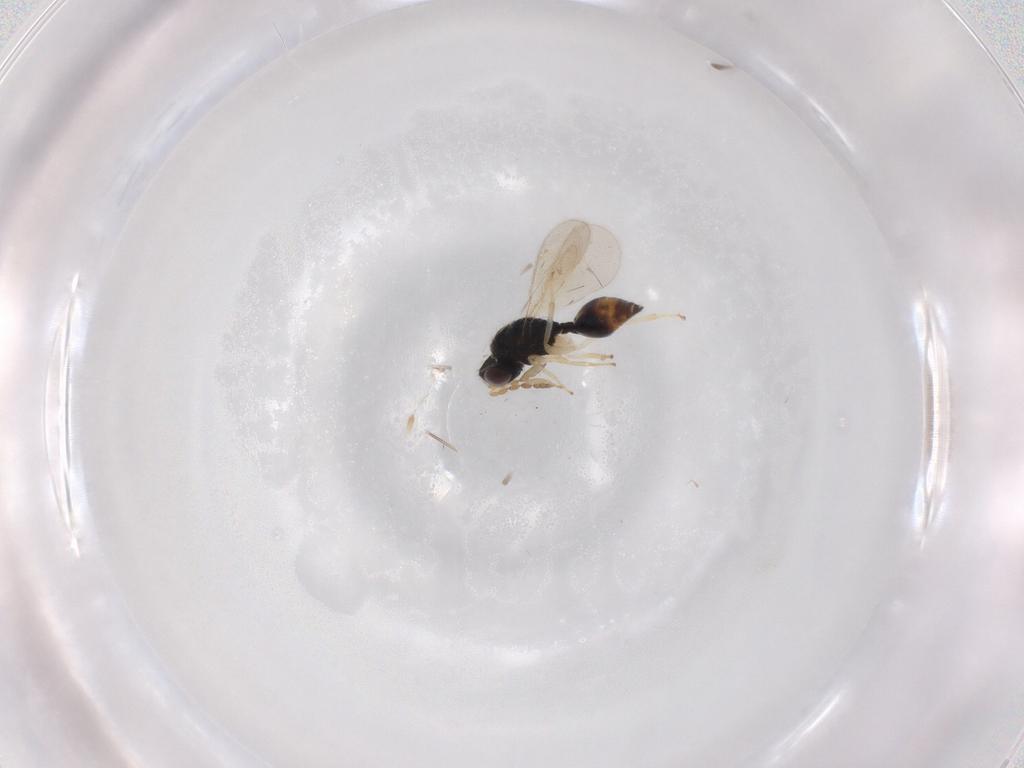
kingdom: Animalia
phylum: Arthropoda
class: Insecta
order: Hymenoptera
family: Eulophidae
